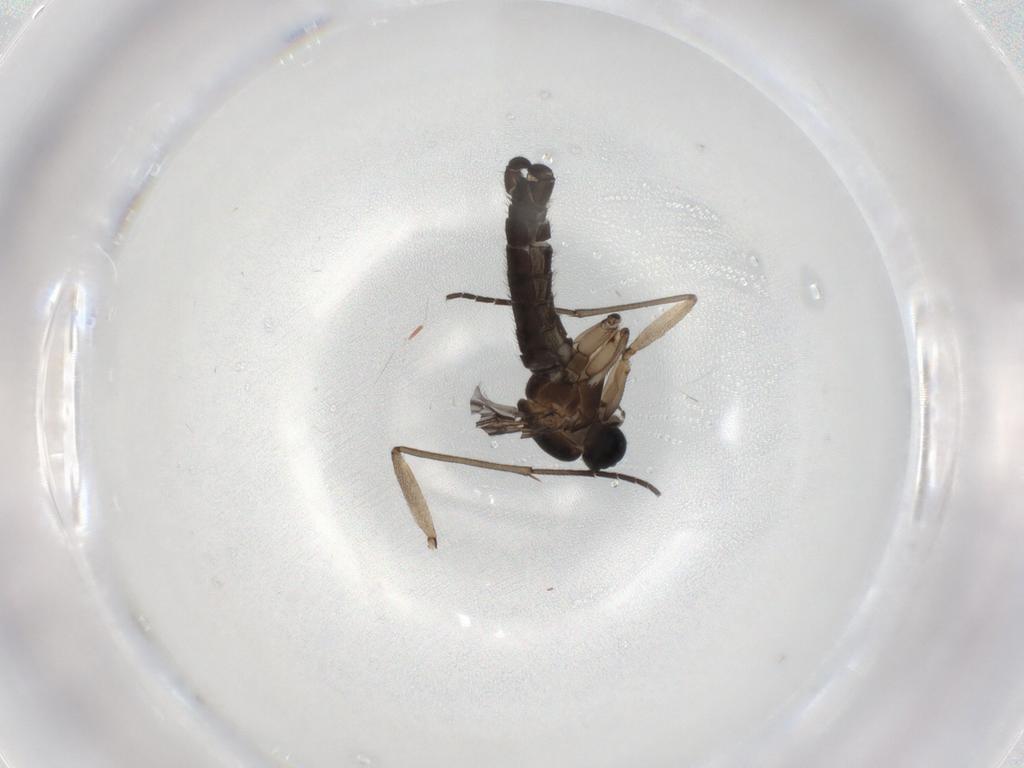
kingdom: Animalia
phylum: Arthropoda
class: Insecta
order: Diptera
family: Sciaridae
